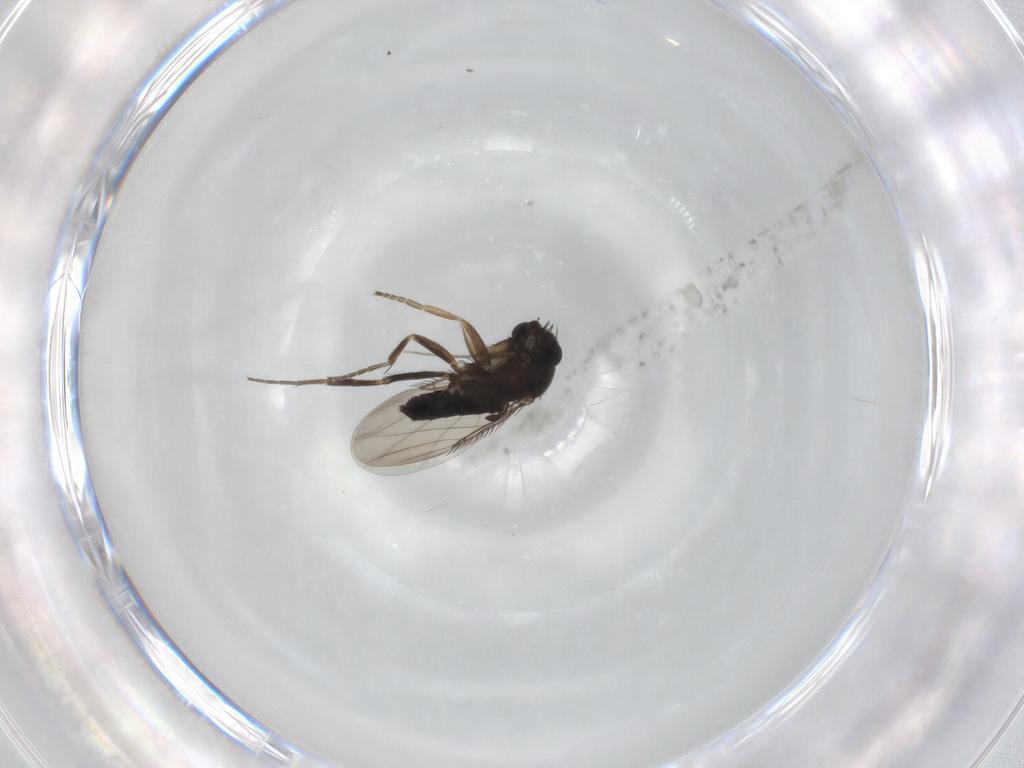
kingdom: Animalia
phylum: Arthropoda
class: Insecta
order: Diptera
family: Phoridae
